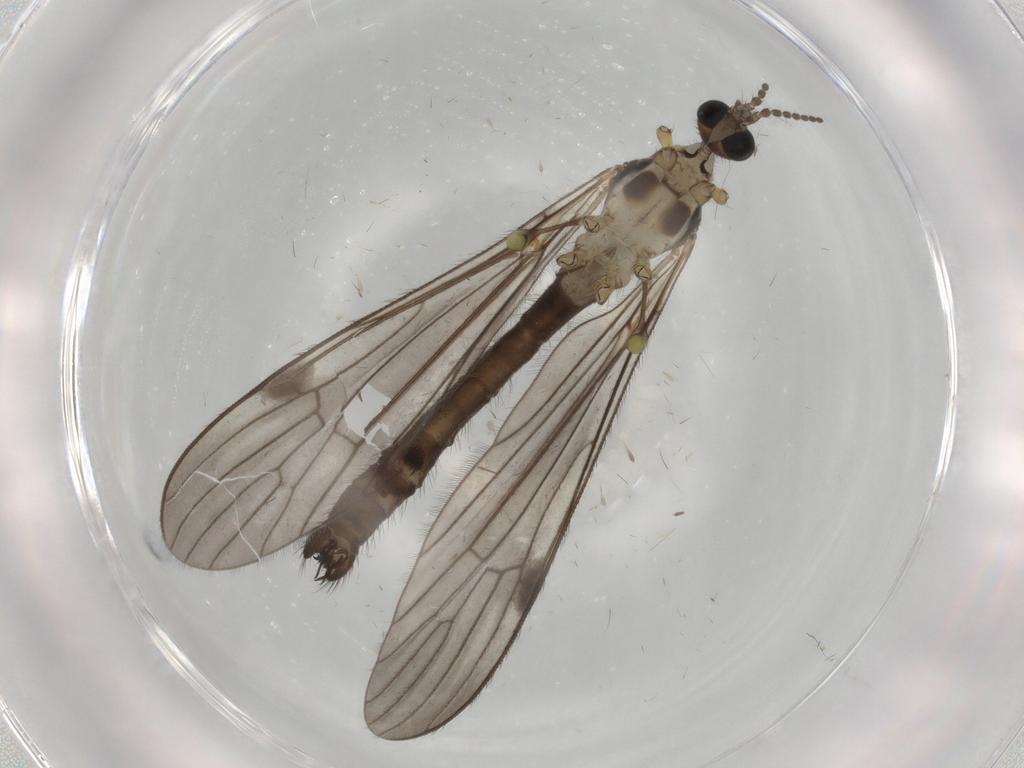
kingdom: Animalia
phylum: Arthropoda
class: Insecta
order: Diptera
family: Limoniidae
